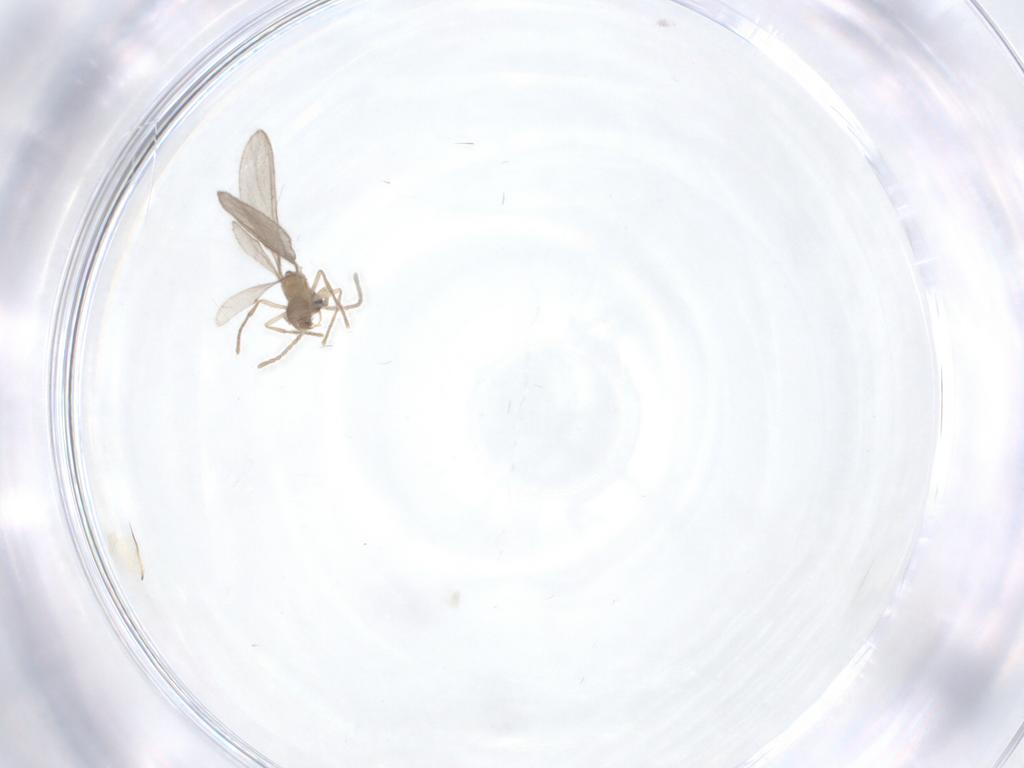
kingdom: Animalia
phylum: Arthropoda
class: Insecta
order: Hymenoptera
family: Formicidae
